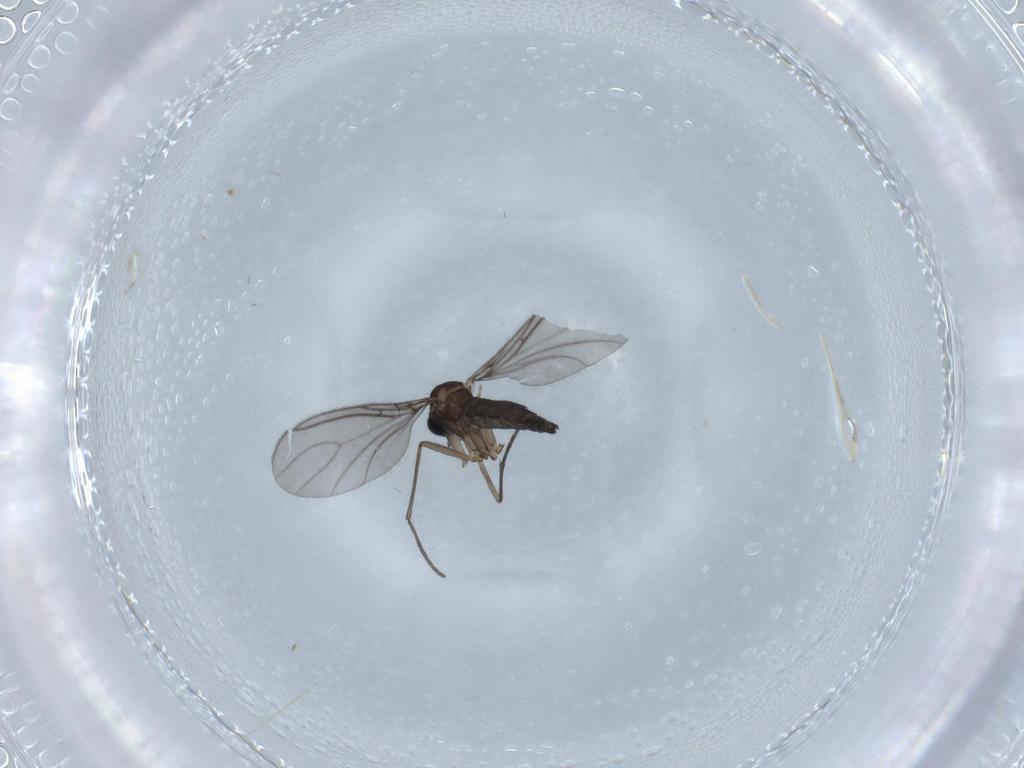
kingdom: Animalia
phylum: Arthropoda
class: Insecta
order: Diptera
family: Sciaridae
